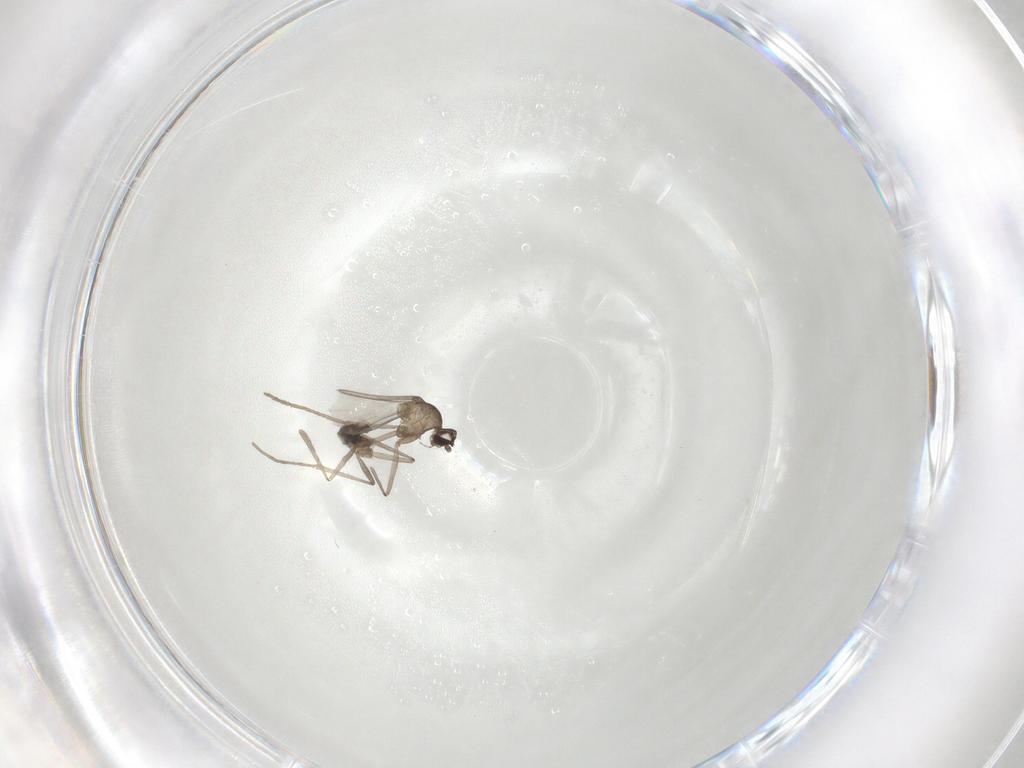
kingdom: Animalia
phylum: Arthropoda
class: Insecta
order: Diptera
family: Cecidomyiidae
